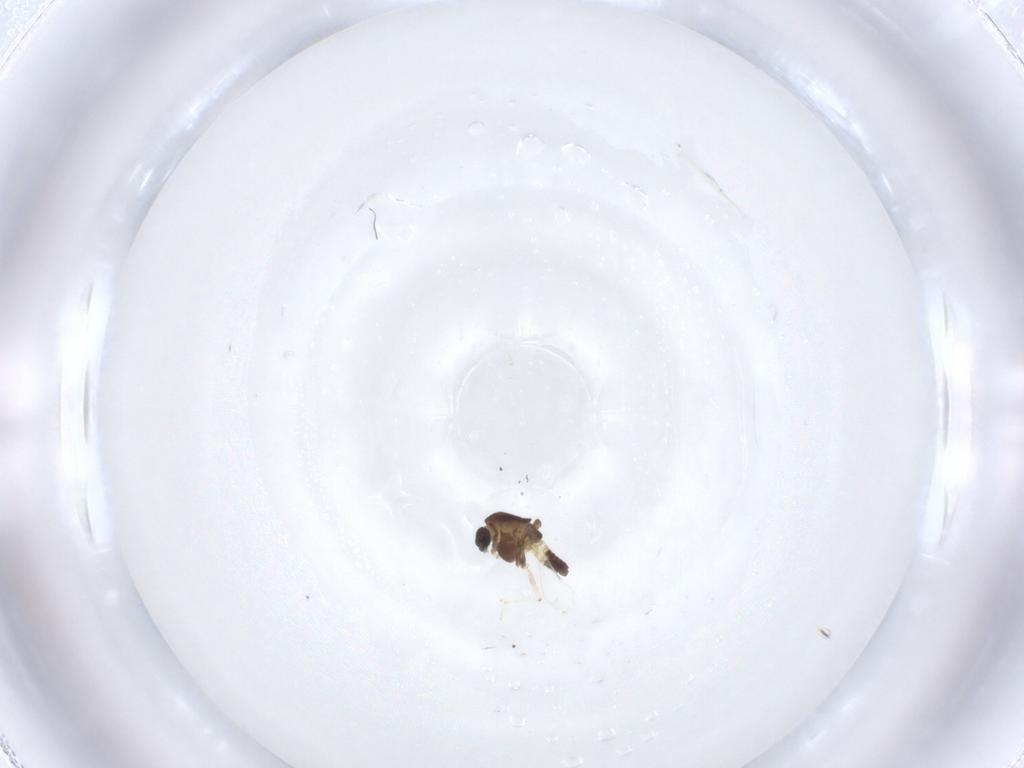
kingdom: Animalia
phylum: Arthropoda
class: Insecta
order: Diptera
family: Chironomidae
